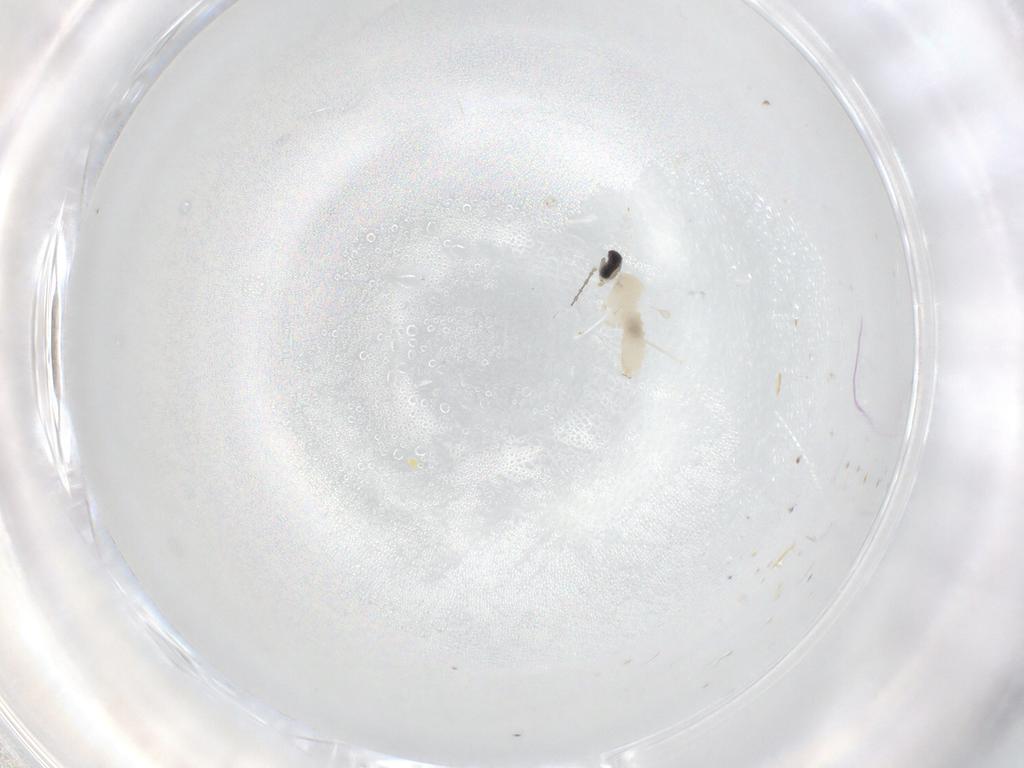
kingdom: Animalia
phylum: Arthropoda
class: Insecta
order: Diptera
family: Cecidomyiidae
